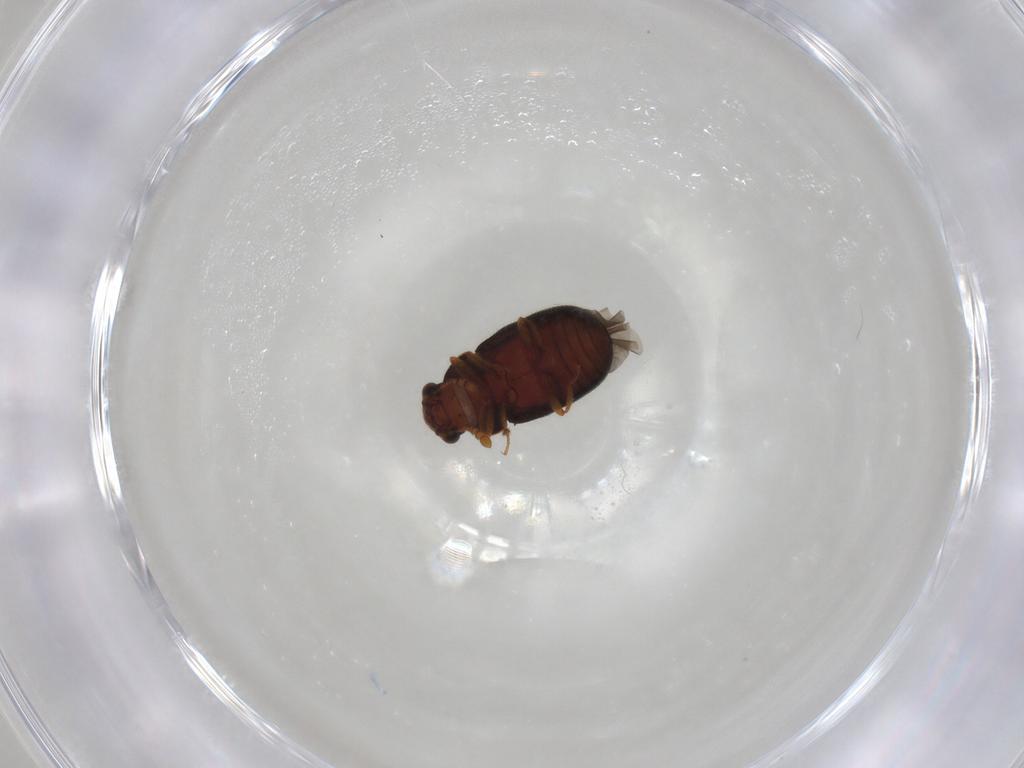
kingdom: Animalia
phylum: Arthropoda
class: Insecta
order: Coleoptera
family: Sphindidae
